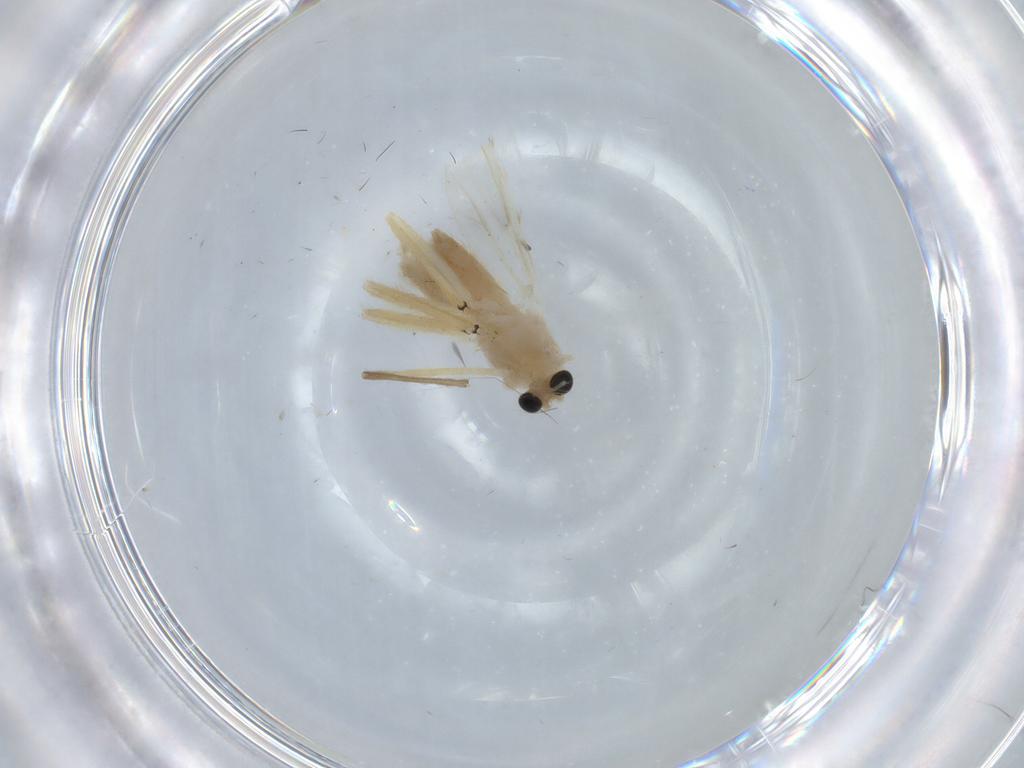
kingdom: Animalia
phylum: Arthropoda
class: Insecta
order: Diptera
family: Chironomidae
